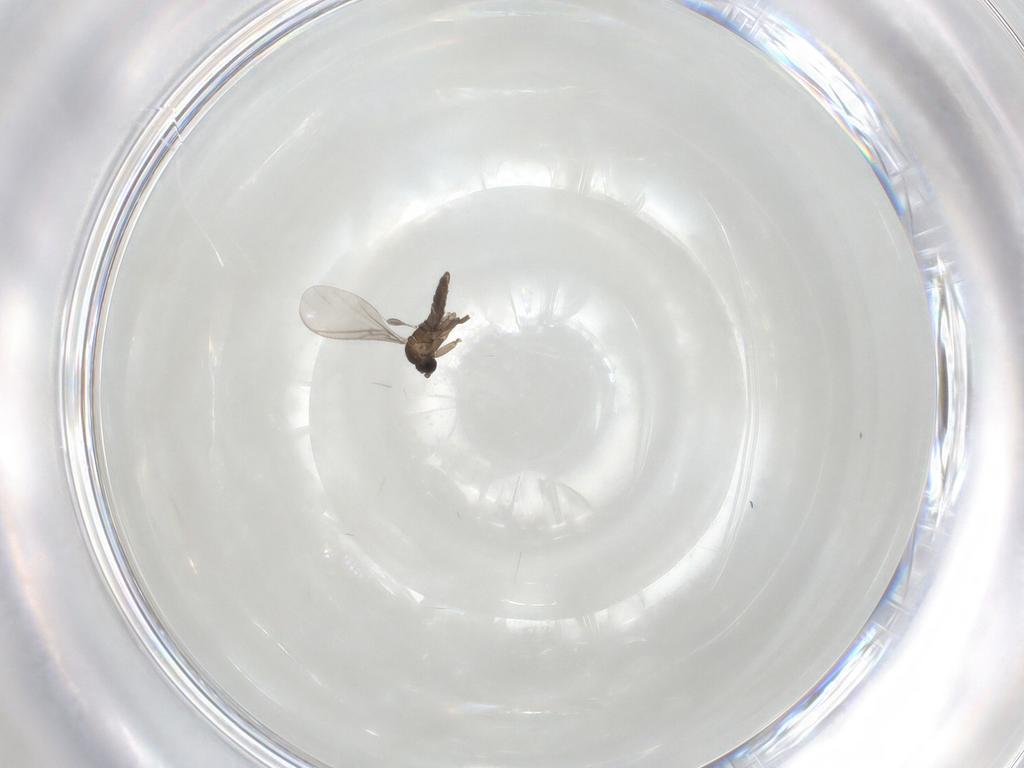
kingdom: Animalia
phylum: Arthropoda
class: Insecta
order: Diptera
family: Sciaridae
